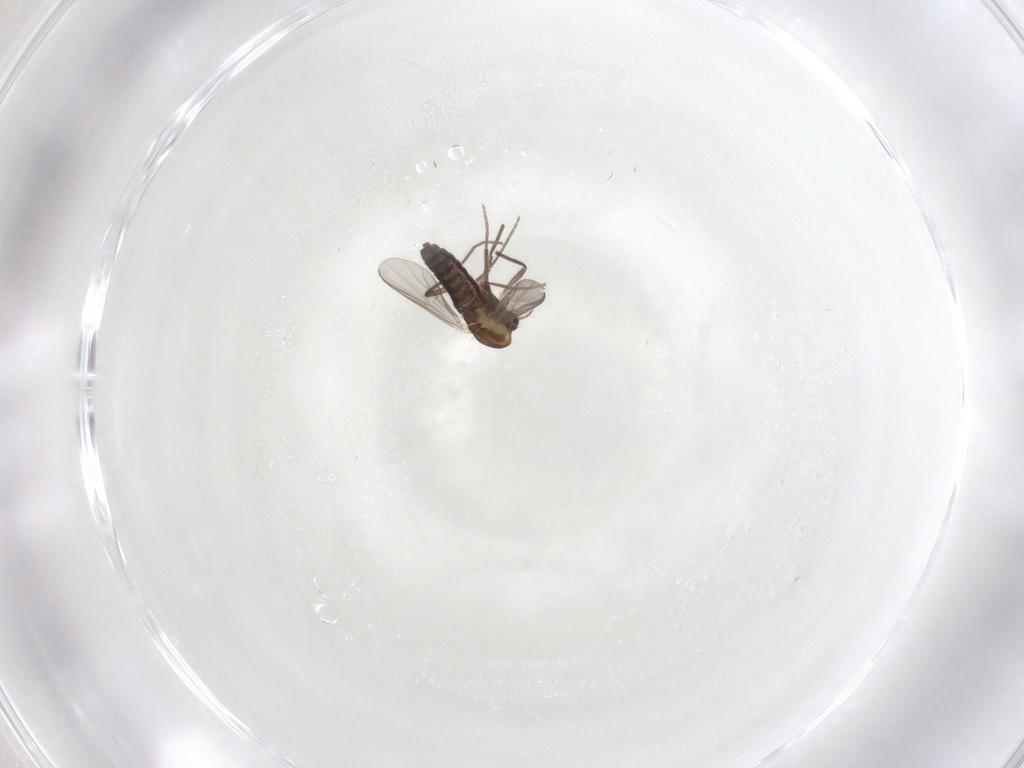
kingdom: Animalia
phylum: Arthropoda
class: Insecta
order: Diptera
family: Chironomidae
